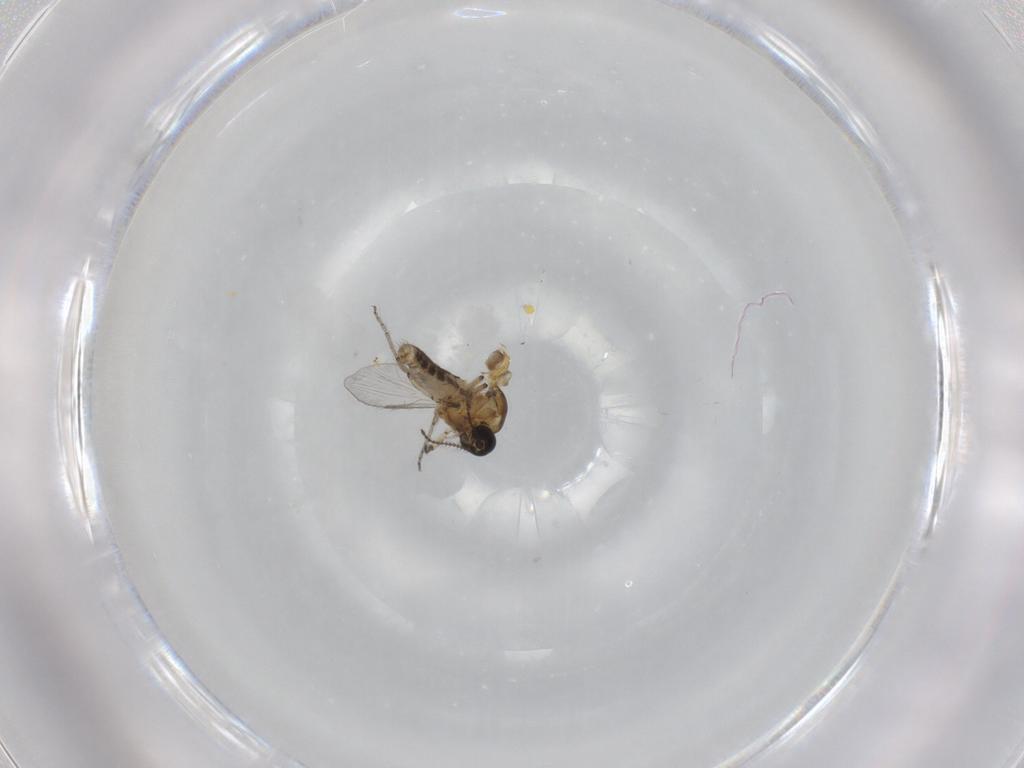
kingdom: Animalia
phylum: Arthropoda
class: Insecta
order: Diptera
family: Ceratopogonidae
